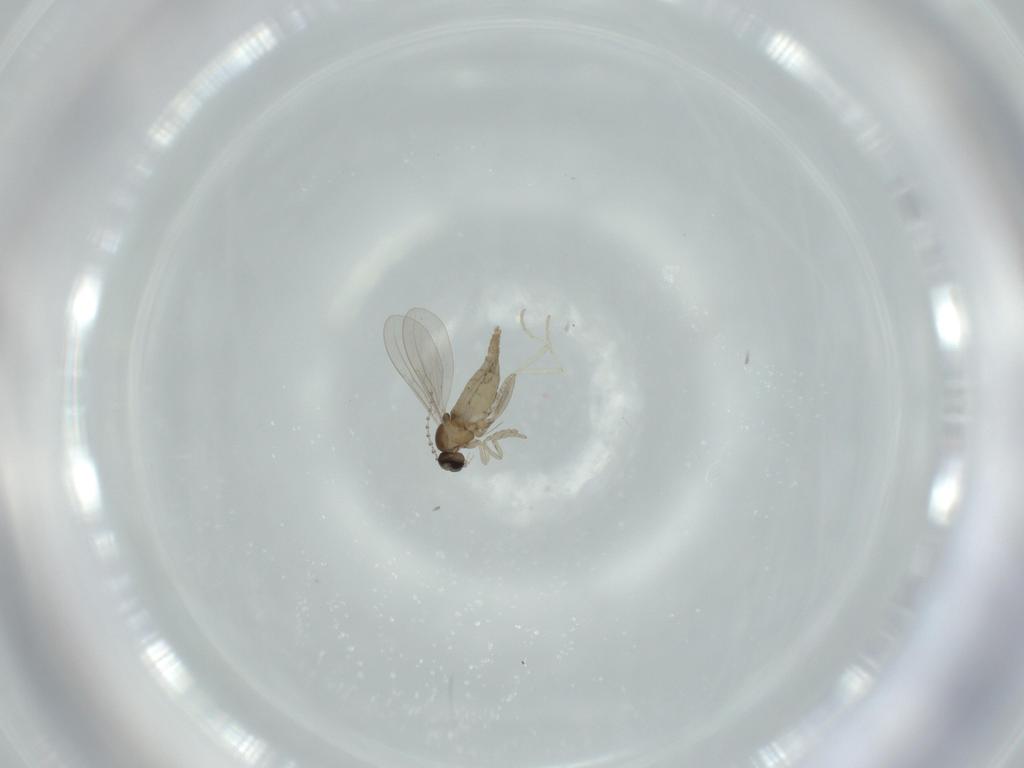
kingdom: Animalia
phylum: Arthropoda
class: Insecta
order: Diptera
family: Cecidomyiidae
